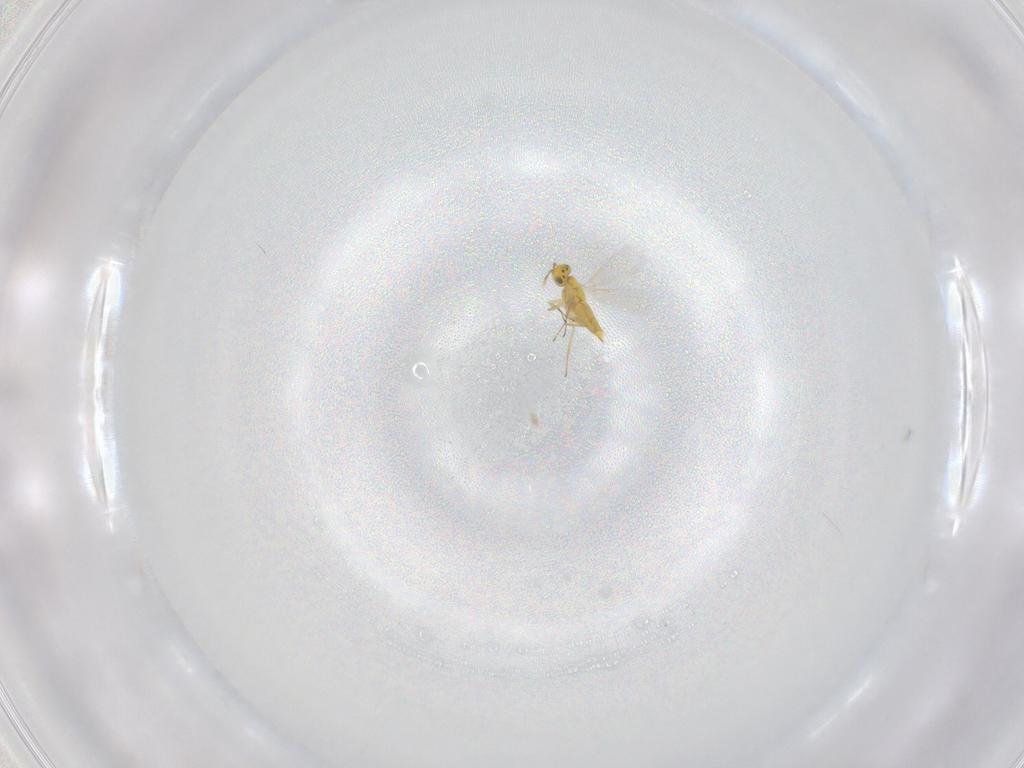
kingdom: Animalia
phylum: Arthropoda
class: Insecta
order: Hymenoptera
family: Aphelinidae
